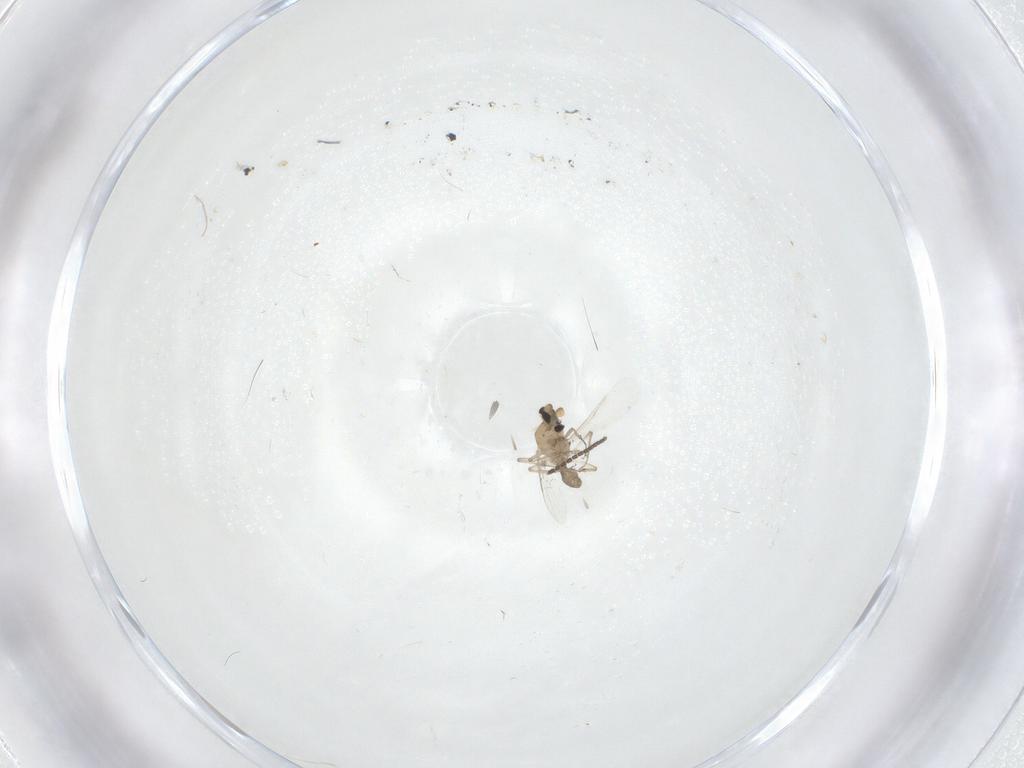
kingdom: Animalia
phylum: Arthropoda
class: Insecta
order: Diptera
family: Ceratopogonidae
